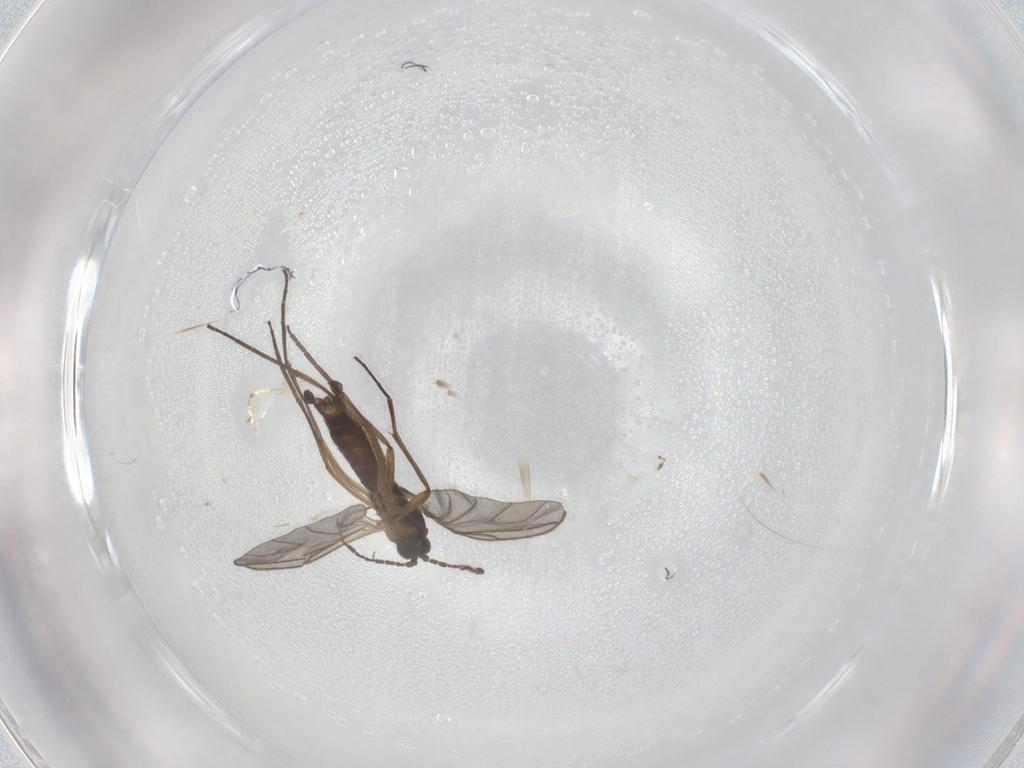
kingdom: Animalia
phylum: Arthropoda
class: Insecta
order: Diptera
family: Sciaridae
